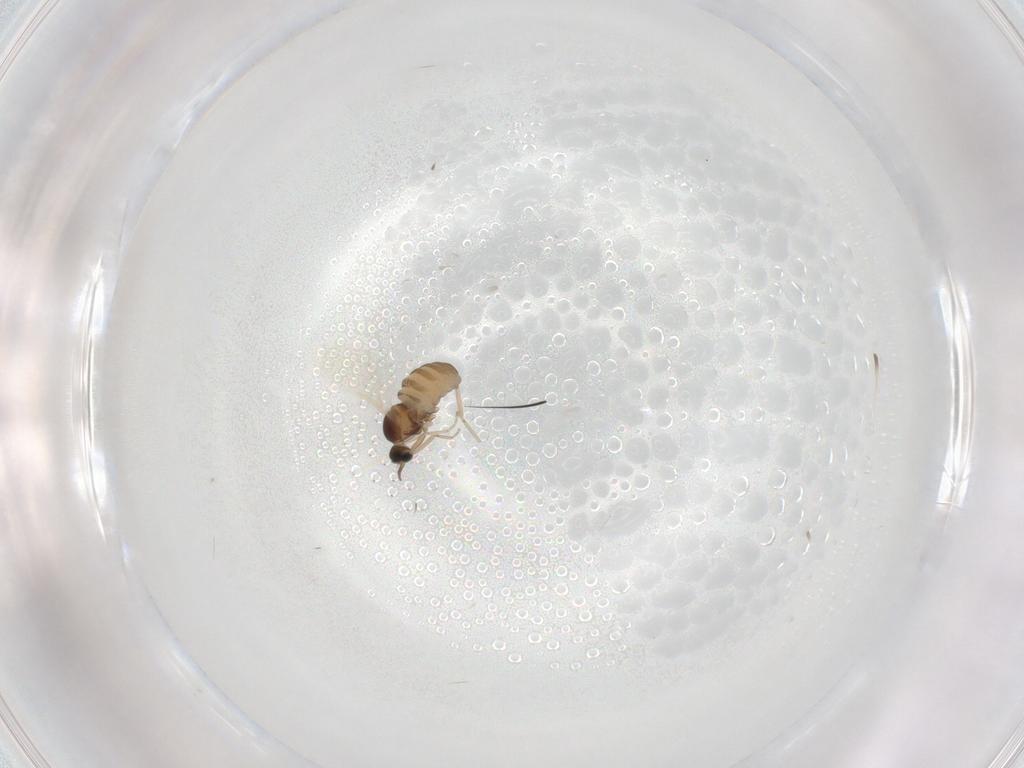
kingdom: Animalia
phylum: Arthropoda
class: Insecta
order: Diptera
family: Cecidomyiidae
